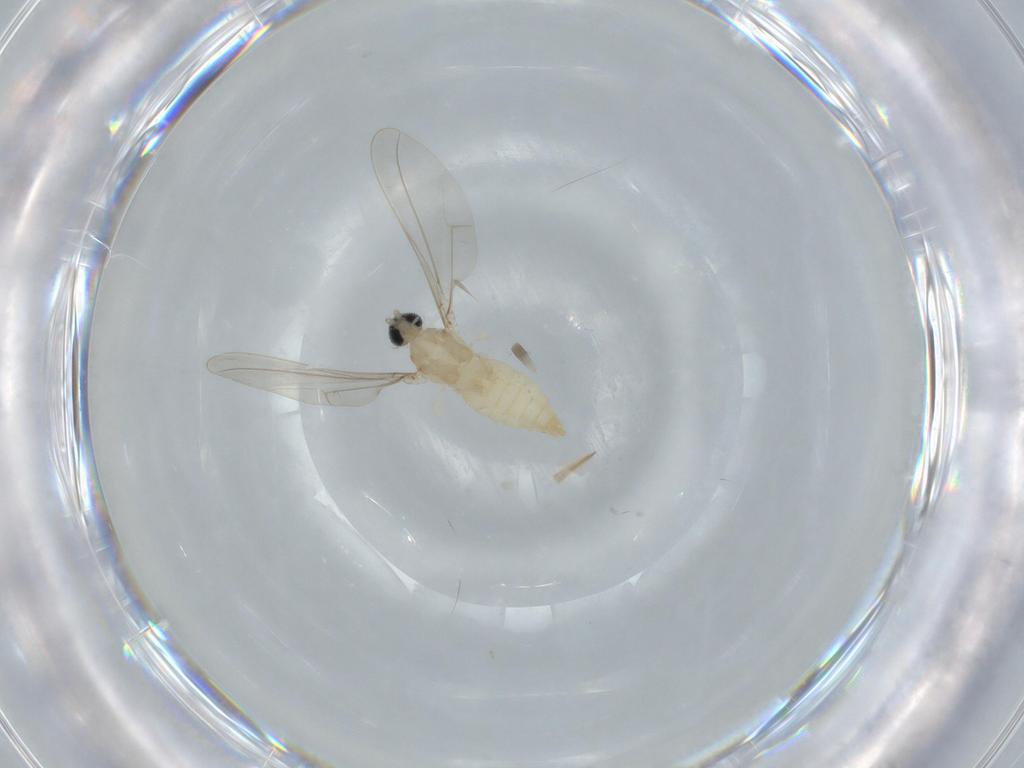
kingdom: Animalia
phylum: Arthropoda
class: Insecta
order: Diptera
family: Cecidomyiidae
